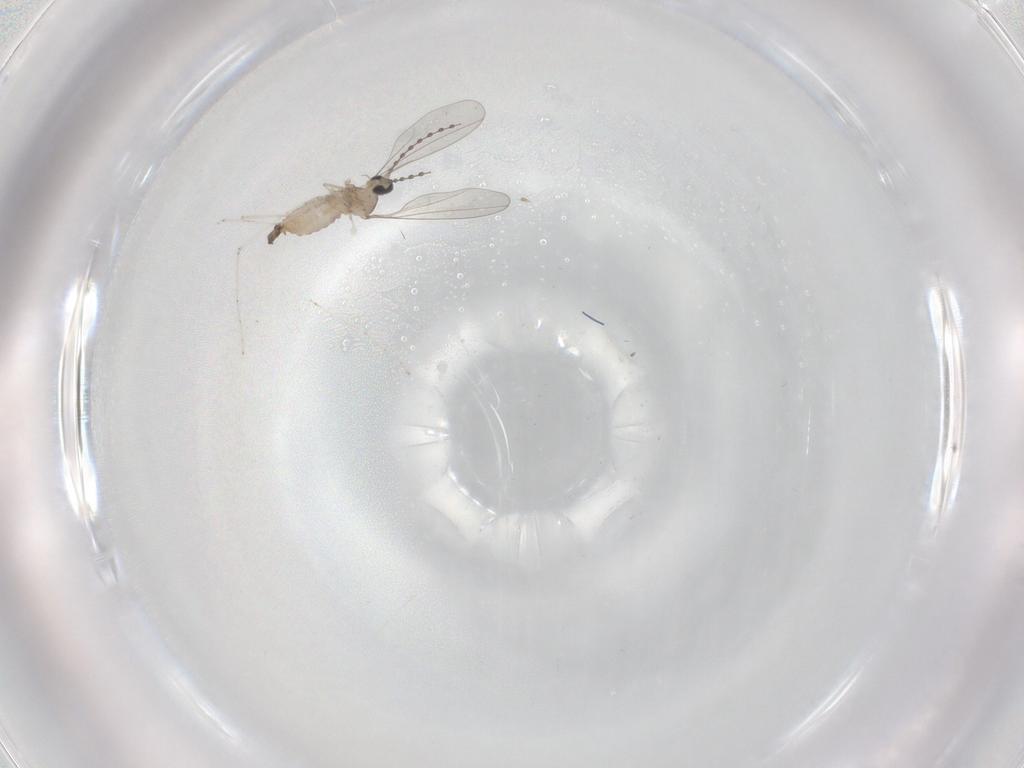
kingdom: Animalia
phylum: Arthropoda
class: Insecta
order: Diptera
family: Cecidomyiidae
